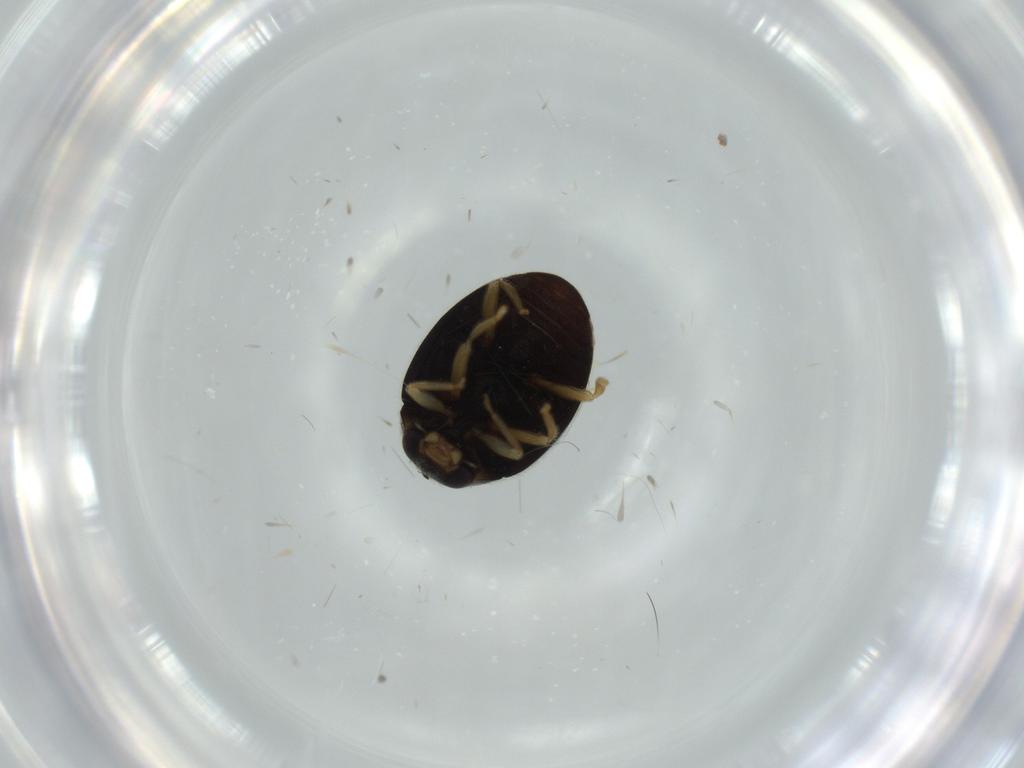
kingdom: Animalia
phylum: Arthropoda
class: Insecta
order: Coleoptera
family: Coccinellidae
